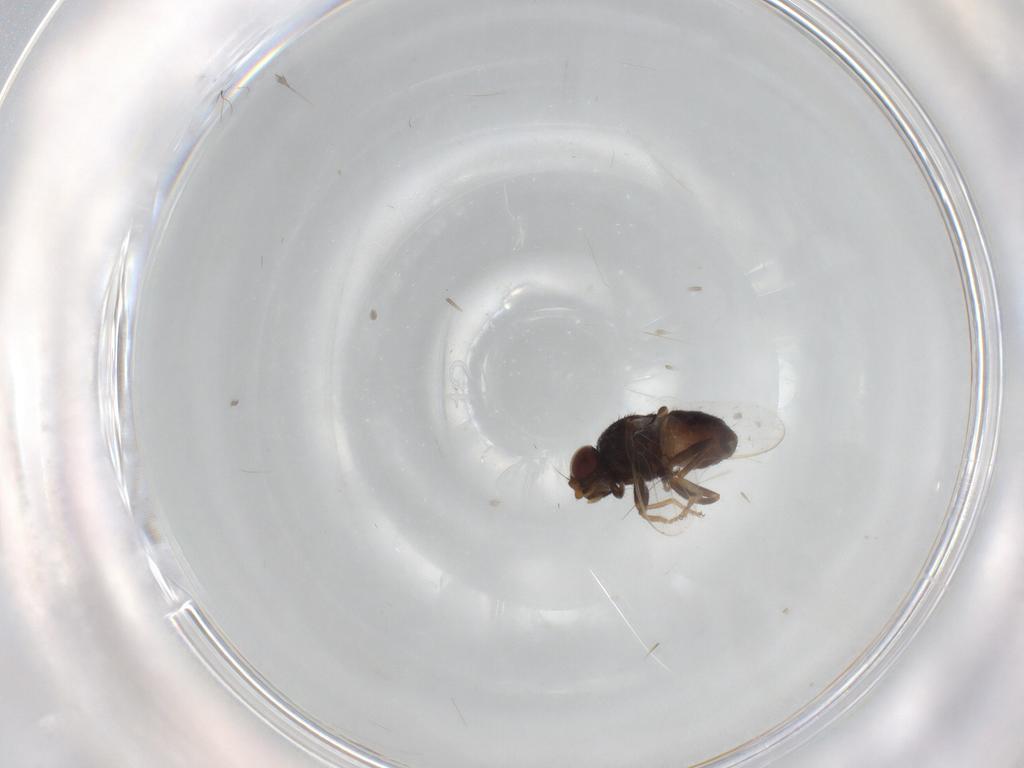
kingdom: Animalia
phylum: Arthropoda
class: Insecta
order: Diptera
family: Chloropidae
